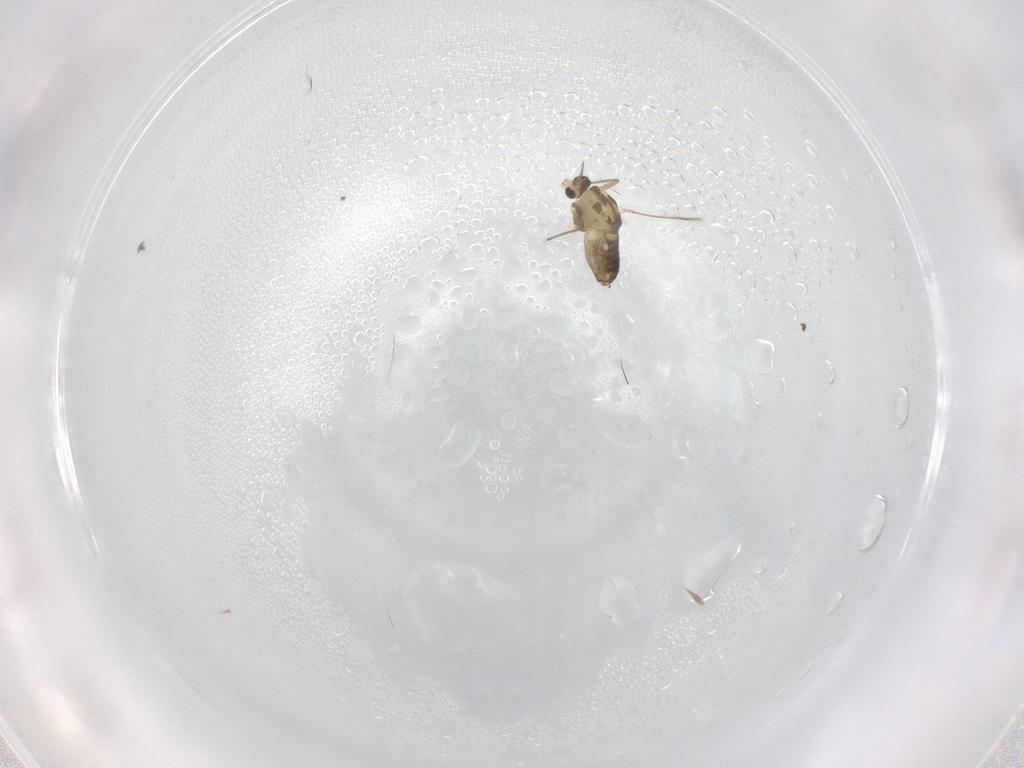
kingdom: Animalia
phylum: Arthropoda
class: Insecta
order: Diptera
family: Chironomidae
